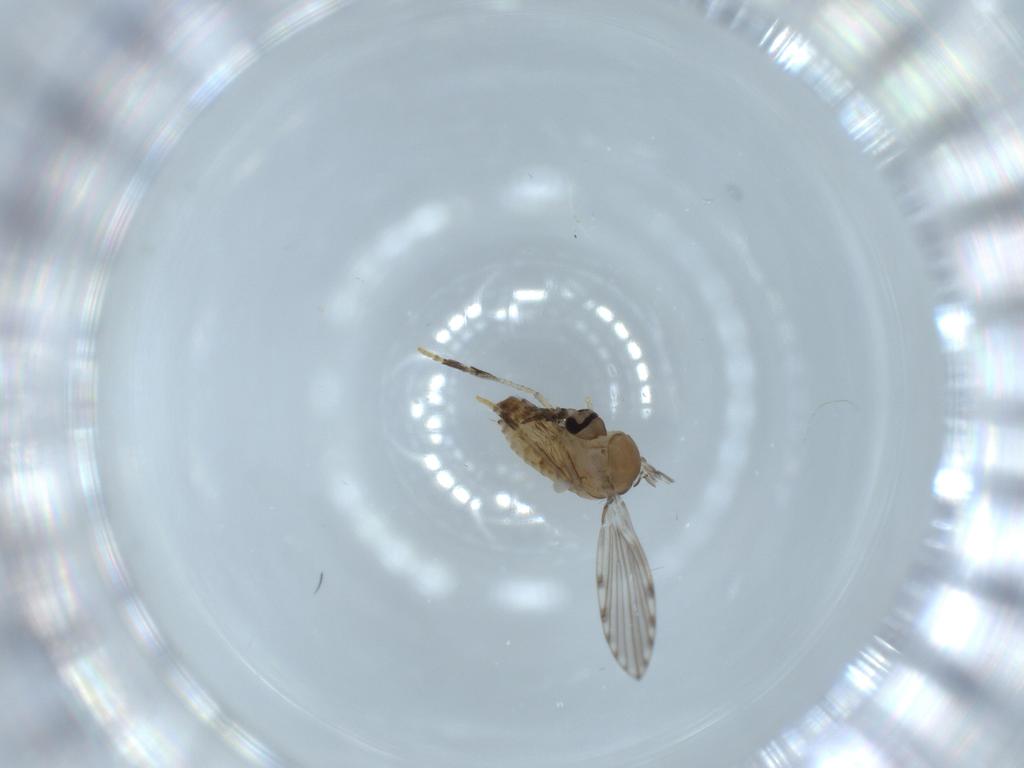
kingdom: Animalia
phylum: Arthropoda
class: Insecta
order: Diptera
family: Psychodidae
